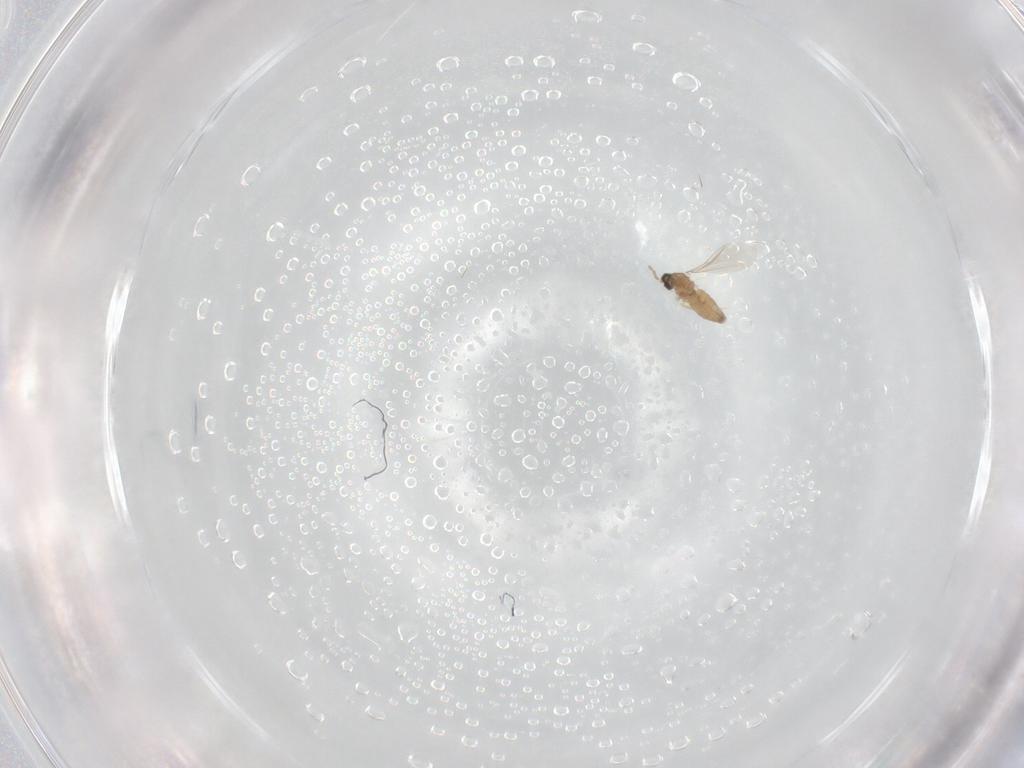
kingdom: Animalia
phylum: Arthropoda
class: Insecta
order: Diptera
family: Cecidomyiidae
